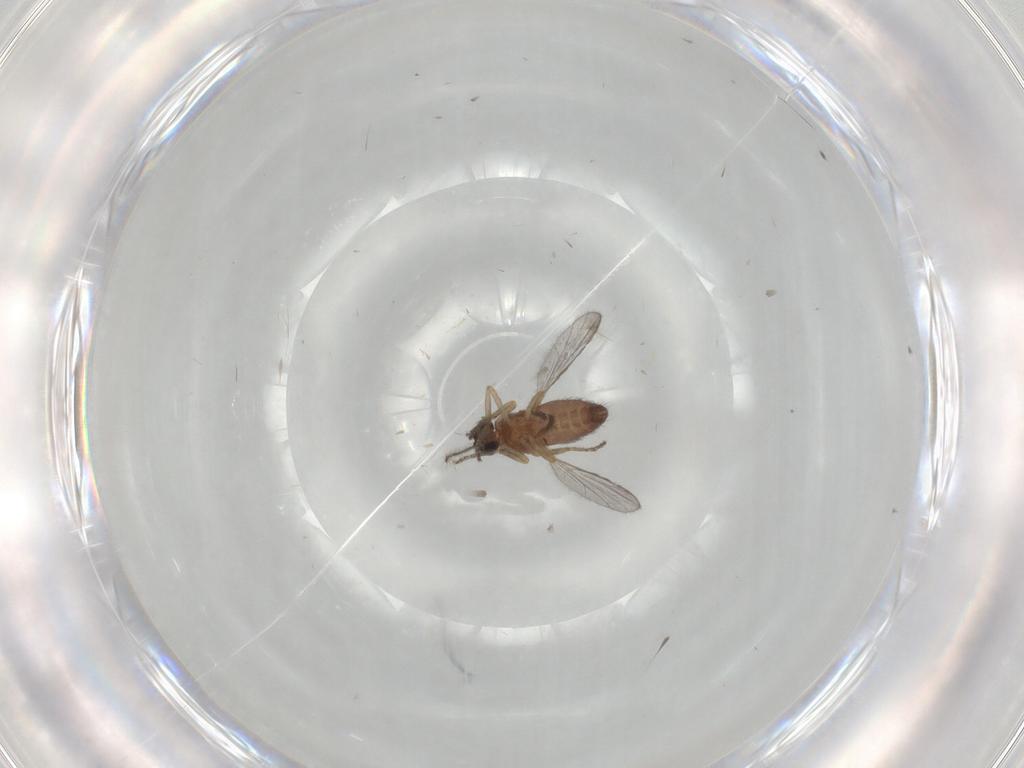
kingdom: Animalia
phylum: Arthropoda
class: Insecta
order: Diptera
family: Ceratopogonidae
